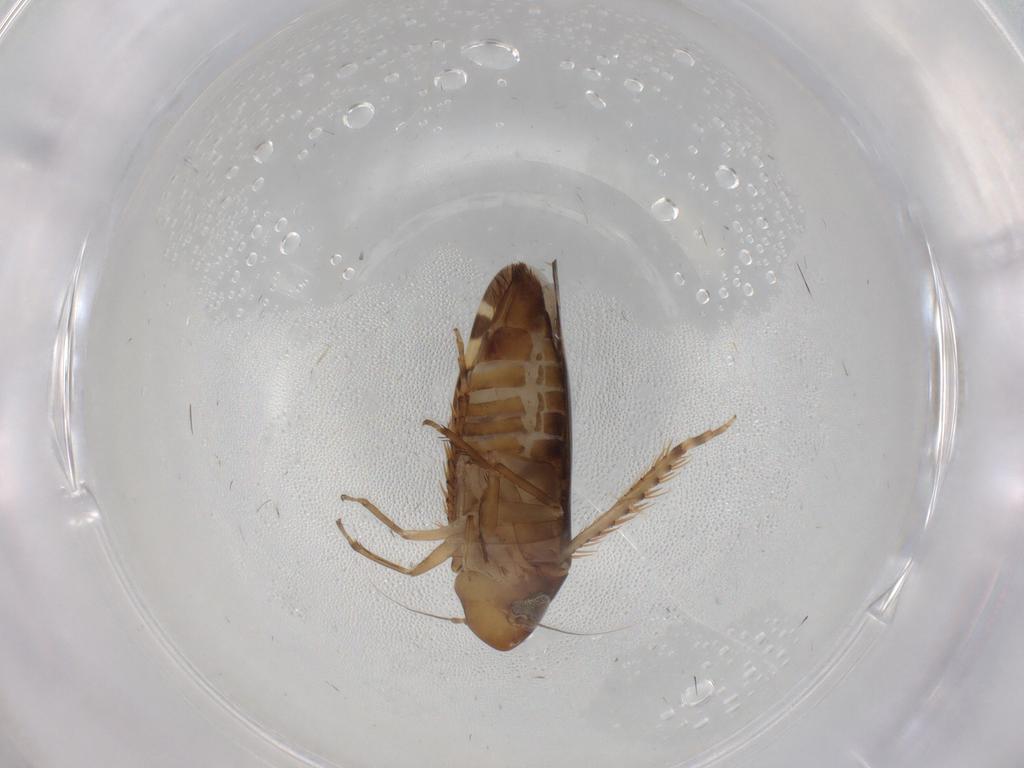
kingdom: Animalia
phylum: Arthropoda
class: Insecta
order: Hemiptera
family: Cicadellidae
